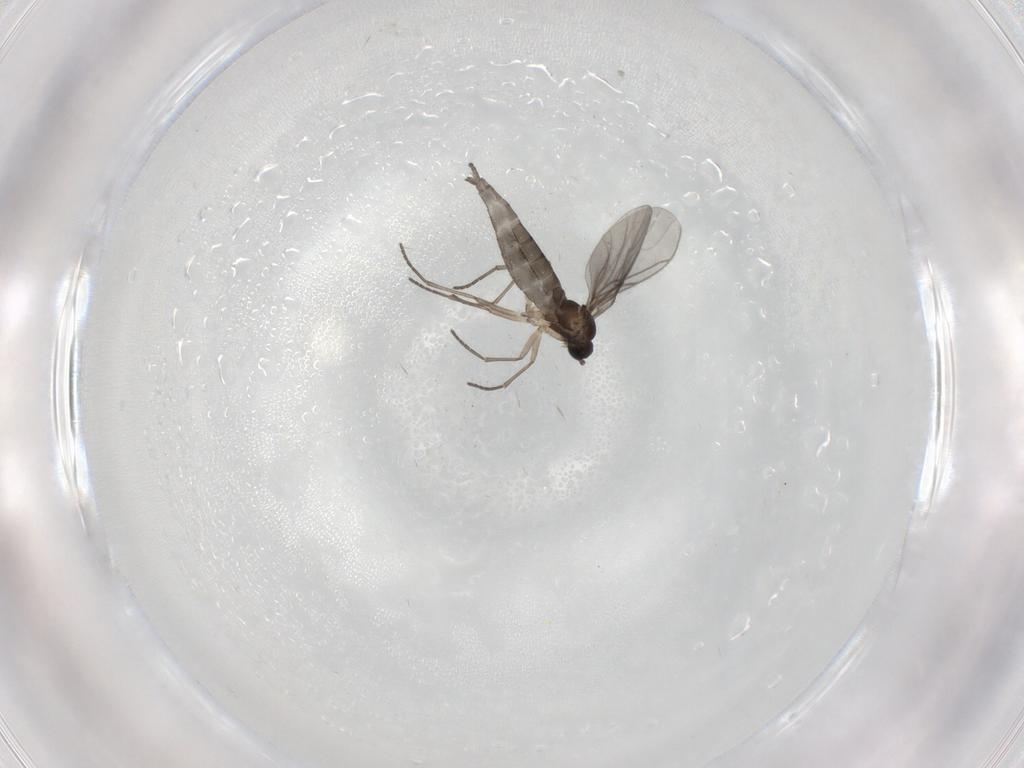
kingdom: Animalia
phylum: Arthropoda
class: Insecta
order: Diptera
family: Sciaridae
